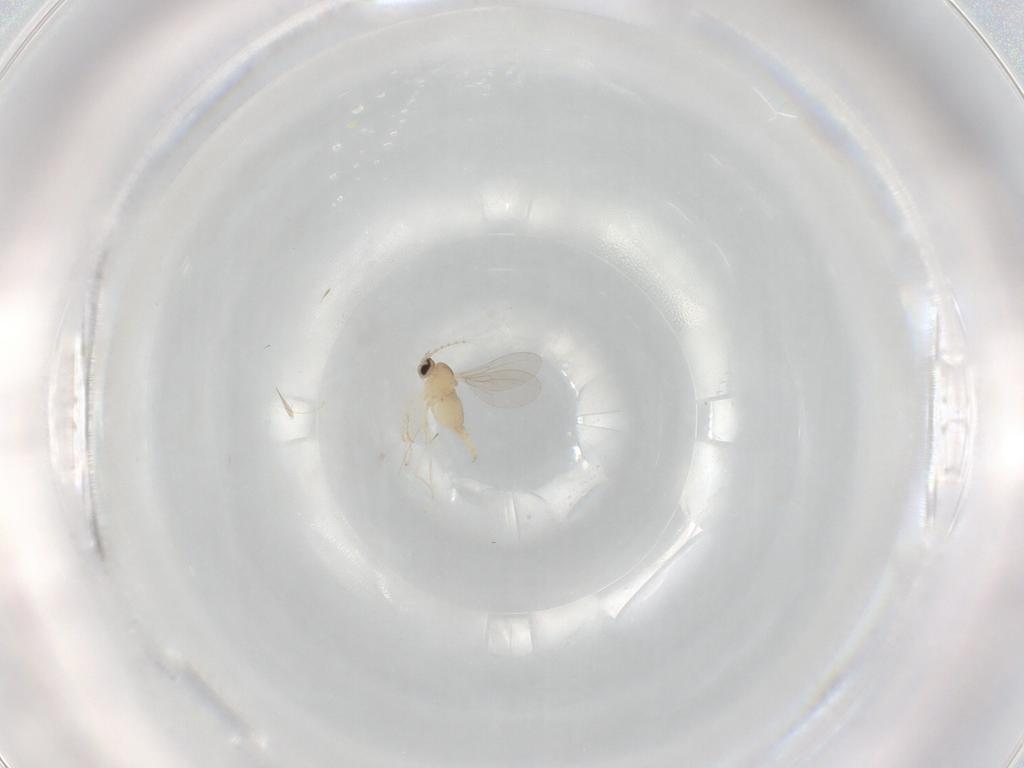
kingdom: Animalia
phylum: Arthropoda
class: Insecta
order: Diptera
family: Cecidomyiidae
